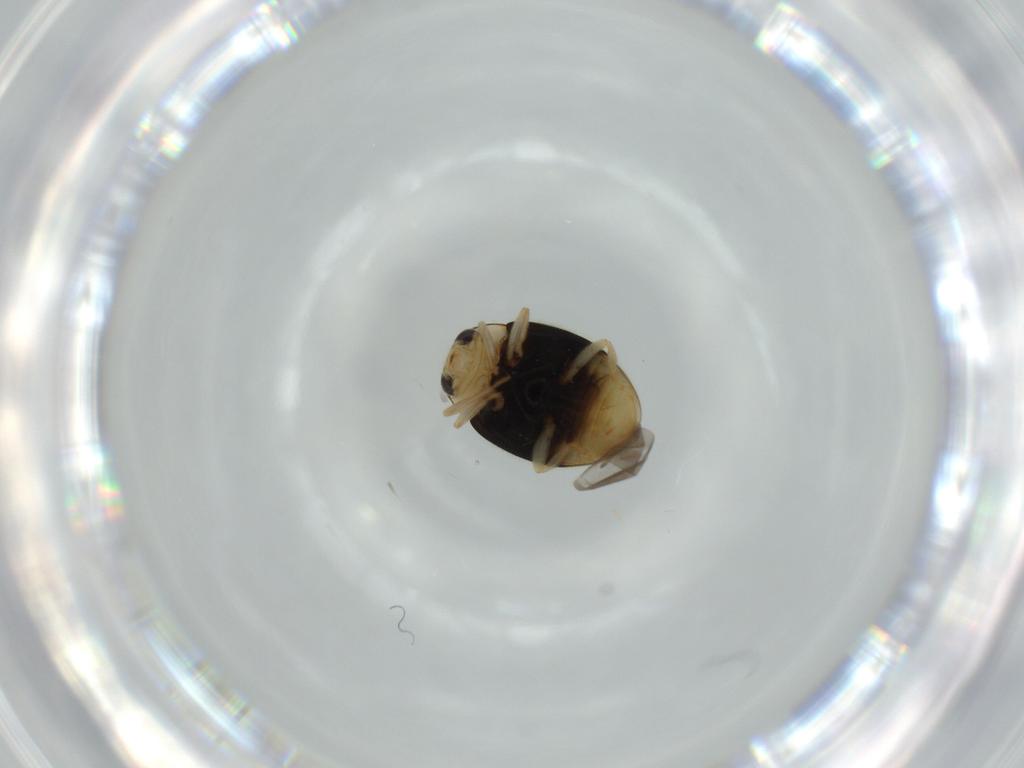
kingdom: Animalia
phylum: Arthropoda
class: Insecta
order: Coleoptera
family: Coccinellidae
